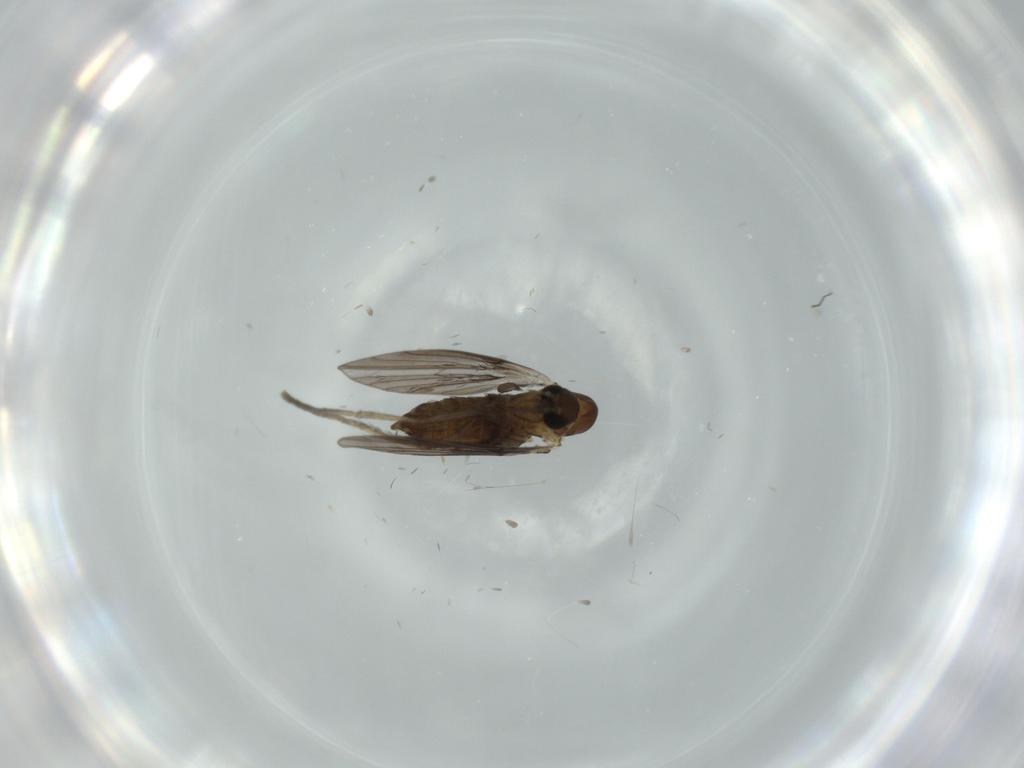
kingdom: Animalia
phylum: Arthropoda
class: Insecta
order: Diptera
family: Psychodidae
